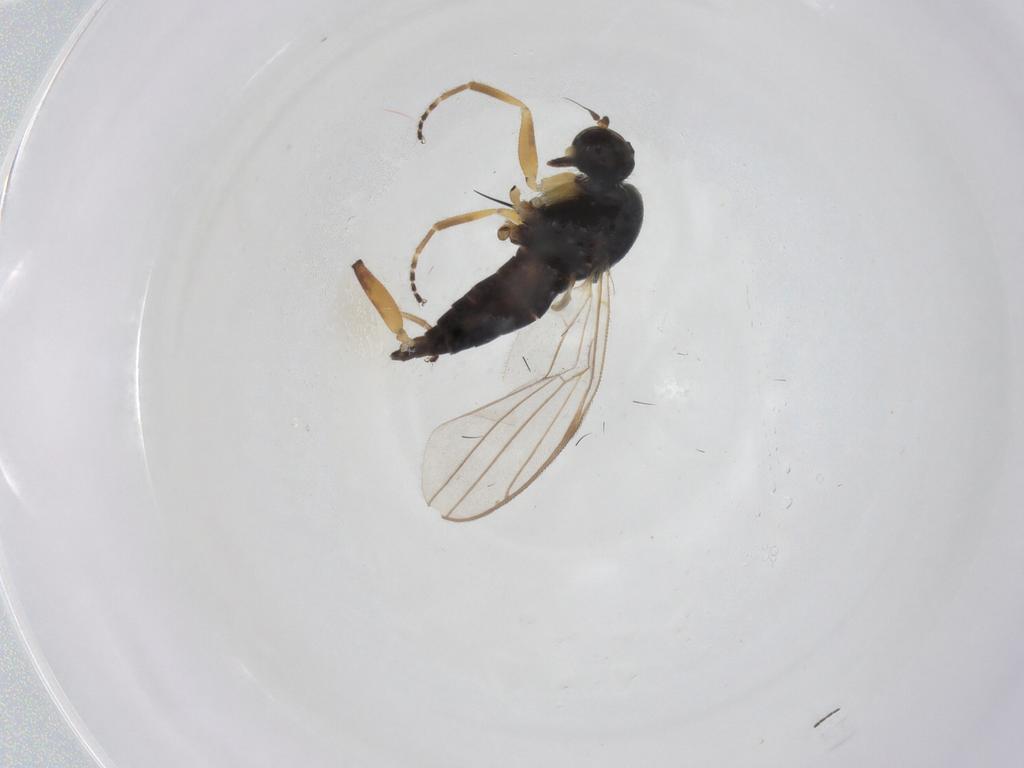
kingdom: Animalia
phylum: Arthropoda
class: Insecta
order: Diptera
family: Hybotidae
